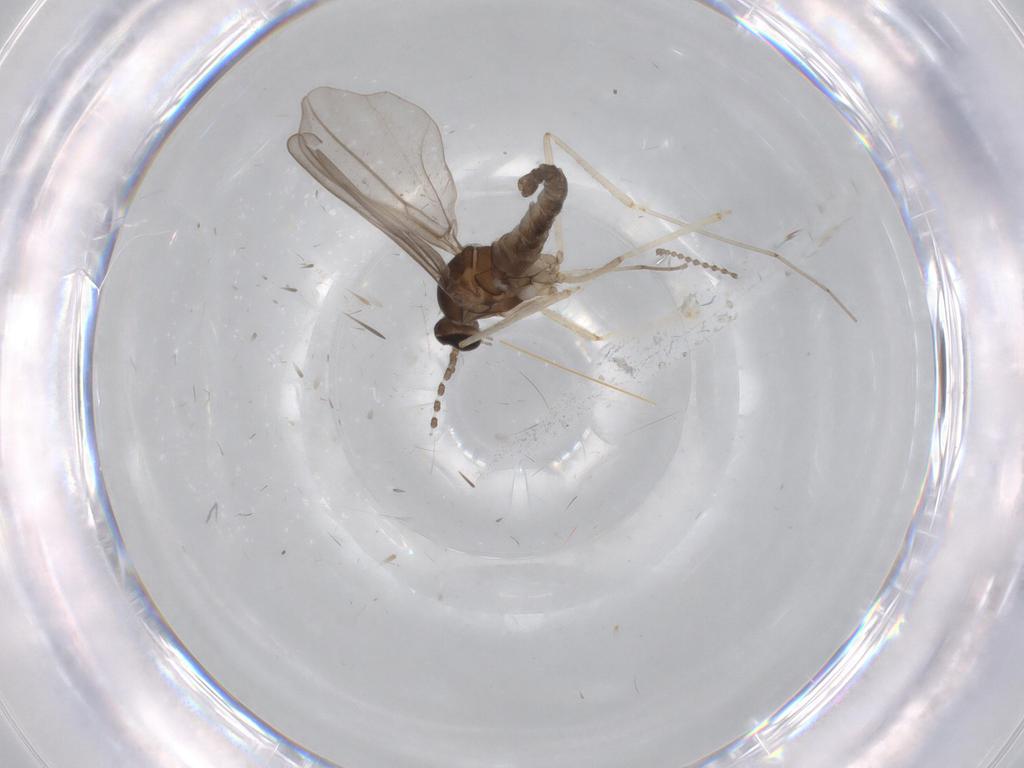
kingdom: Animalia
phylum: Arthropoda
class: Insecta
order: Diptera
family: Cecidomyiidae
